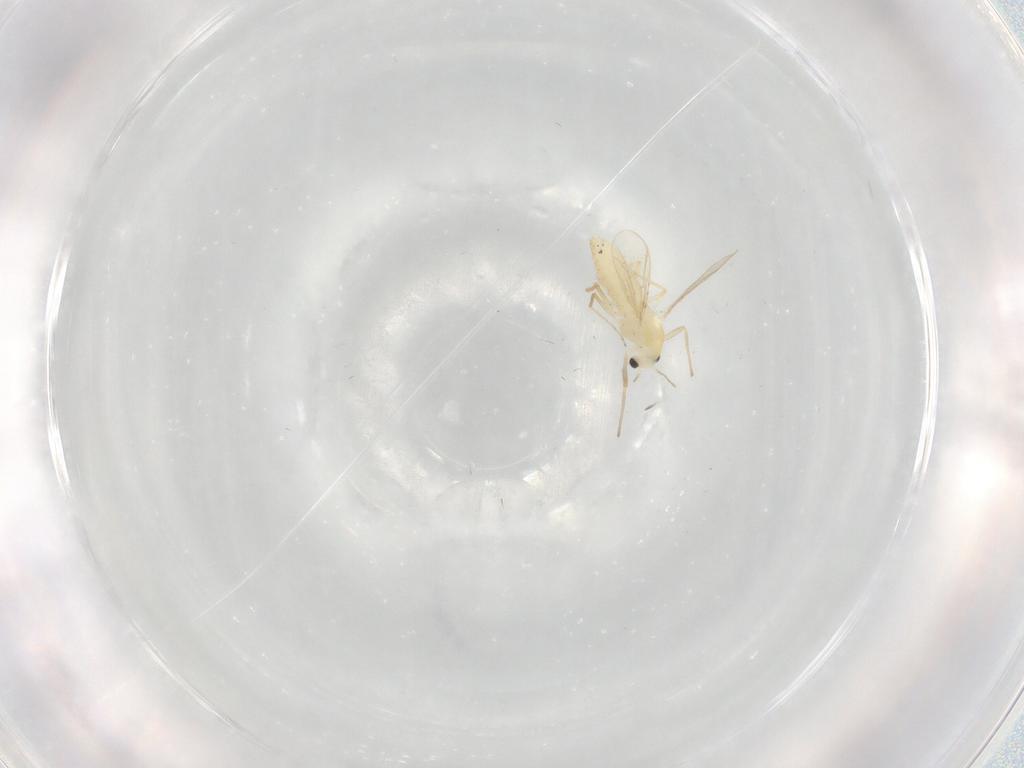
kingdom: Animalia
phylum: Arthropoda
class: Insecta
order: Diptera
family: Chironomidae
